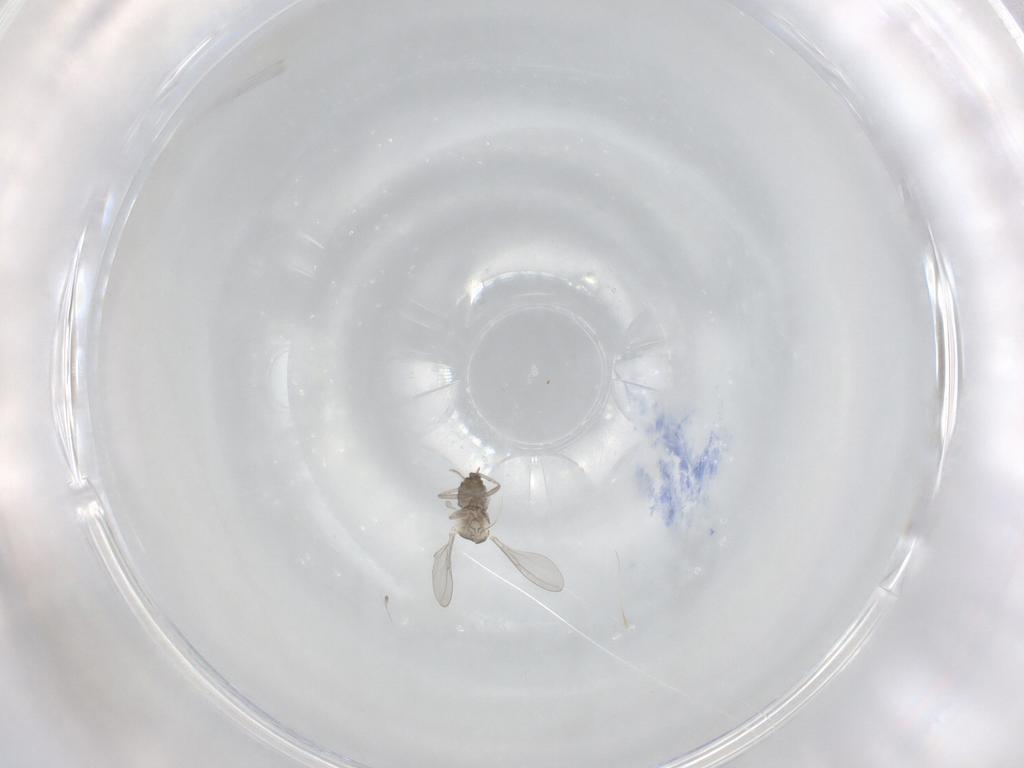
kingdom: Animalia
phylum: Arthropoda
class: Insecta
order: Diptera
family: Cecidomyiidae
